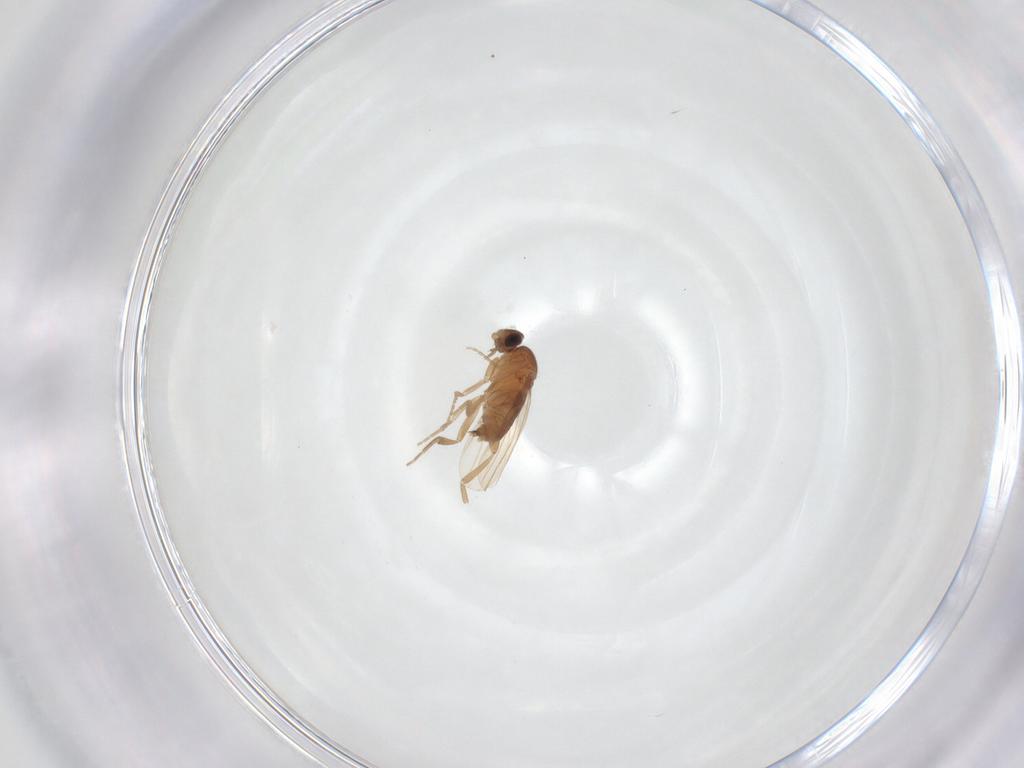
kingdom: Animalia
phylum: Arthropoda
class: Insecta
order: Diptera
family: Phoridae
